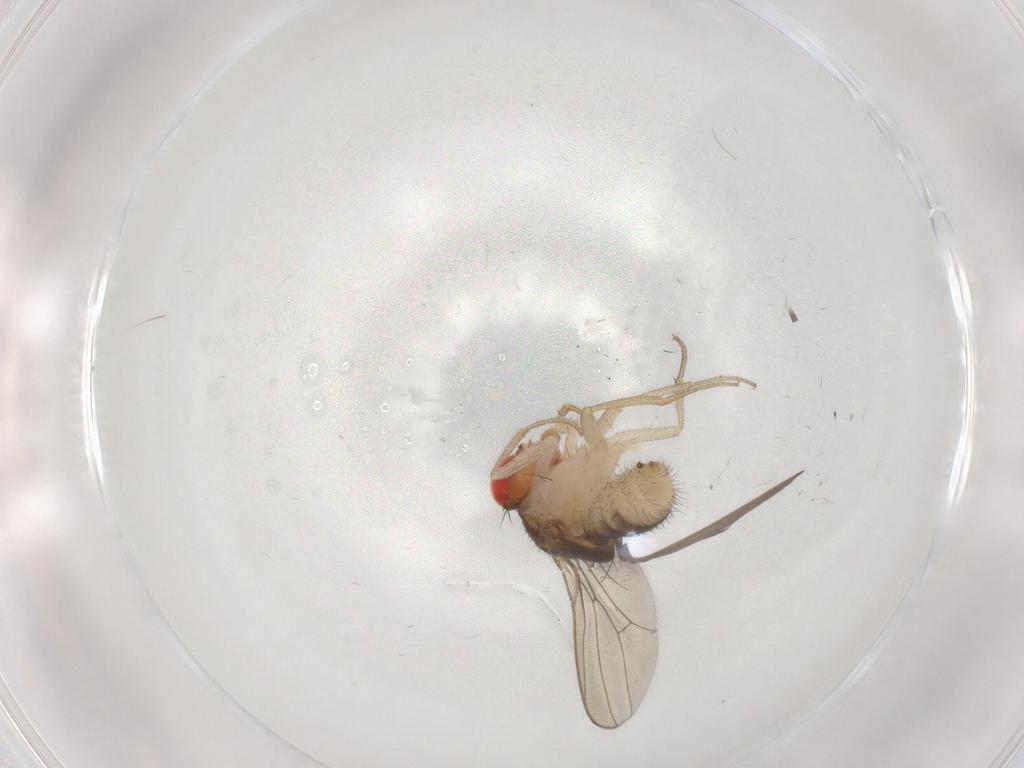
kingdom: Animalia
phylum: Arthropoda
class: Insecta
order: Diptera
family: Drosophilidae
